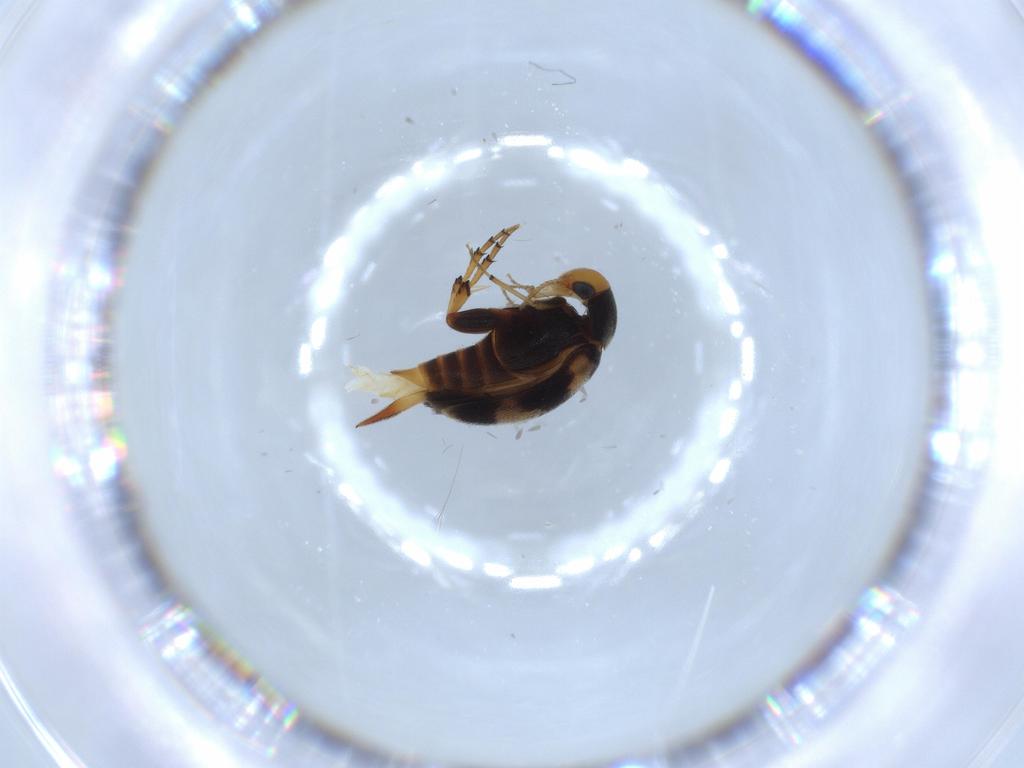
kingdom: Animalia
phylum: Arthropoda
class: Insecta
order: Coleoptera
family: Mordellidae
